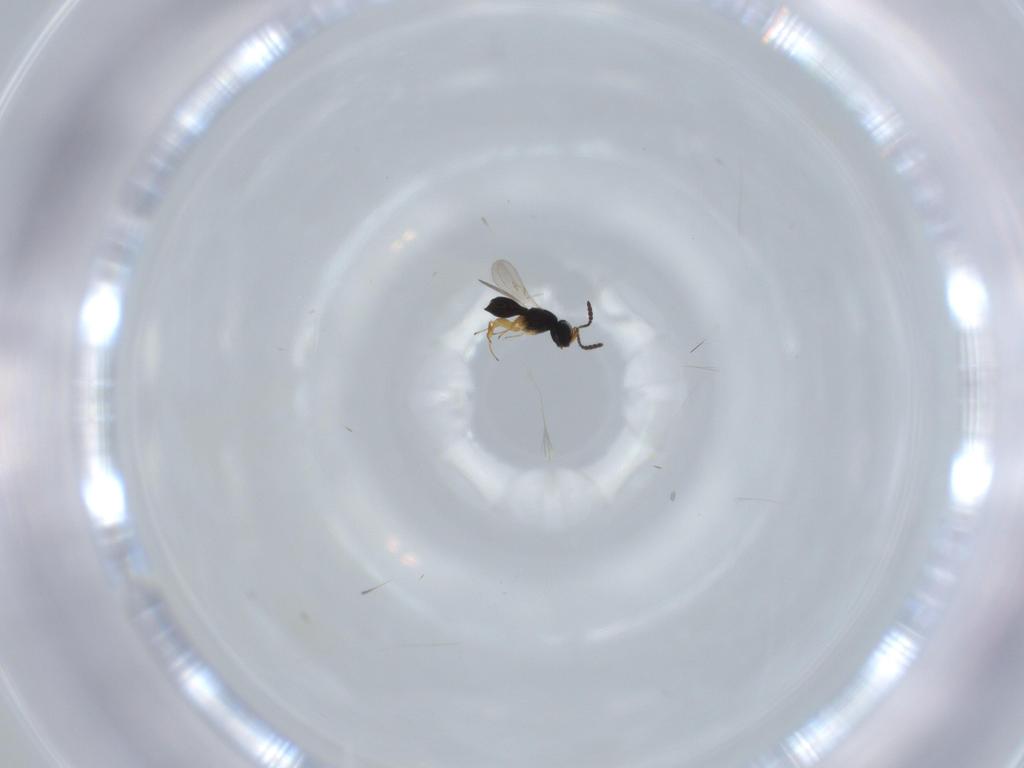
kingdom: Animalia
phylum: Arthropoda
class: Insecta
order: Hymenoptera
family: Scelionidae
